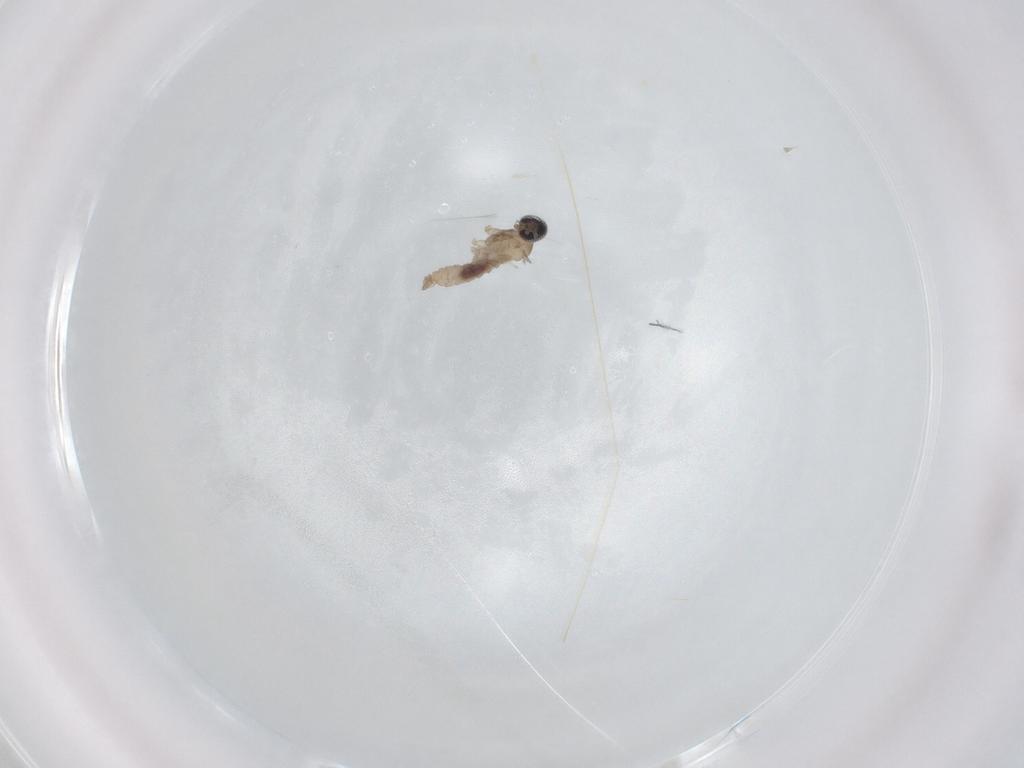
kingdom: Animalia
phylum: Arthropoda
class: Insecta
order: Diptera
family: Cecidomyiidae
